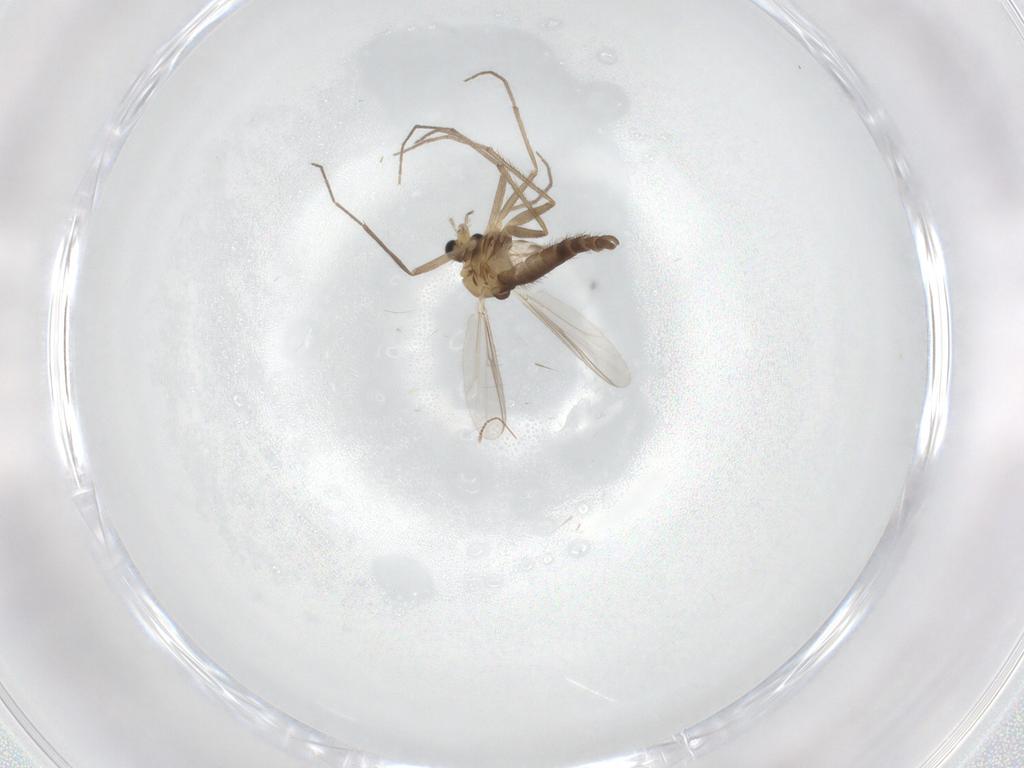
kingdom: Animalia
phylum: Arthropoda
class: Insecta
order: Diptera
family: Chironomidae
